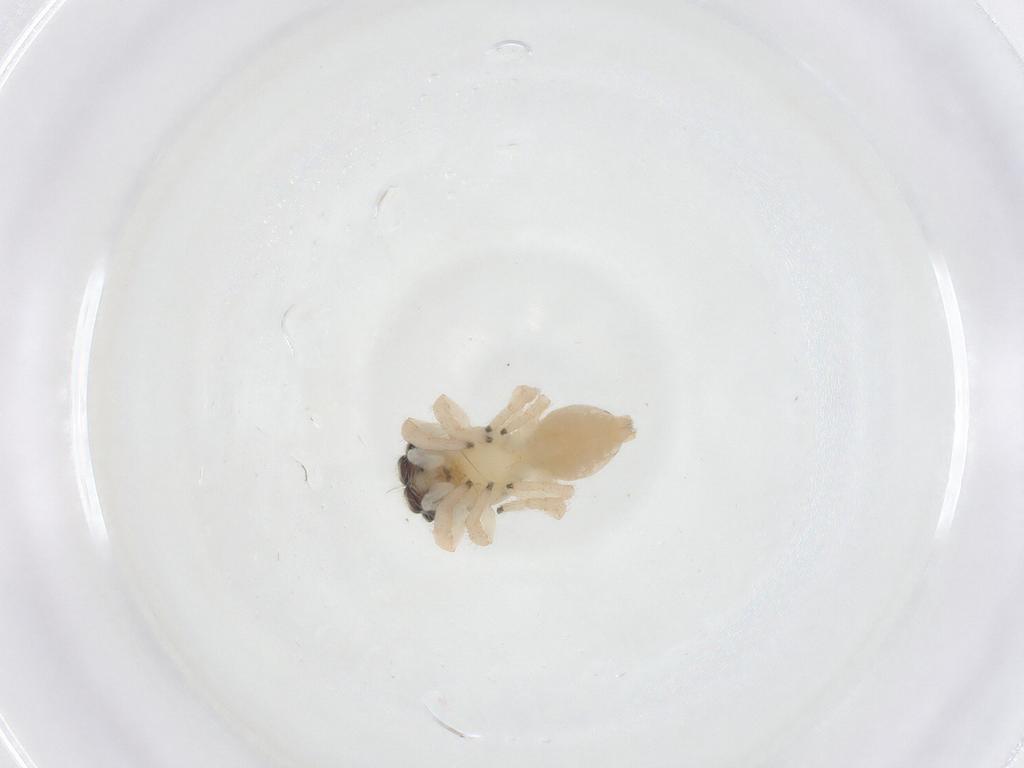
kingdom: Animalia
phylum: Arthropoda
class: Arachnida
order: Araneae
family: Salticidae
